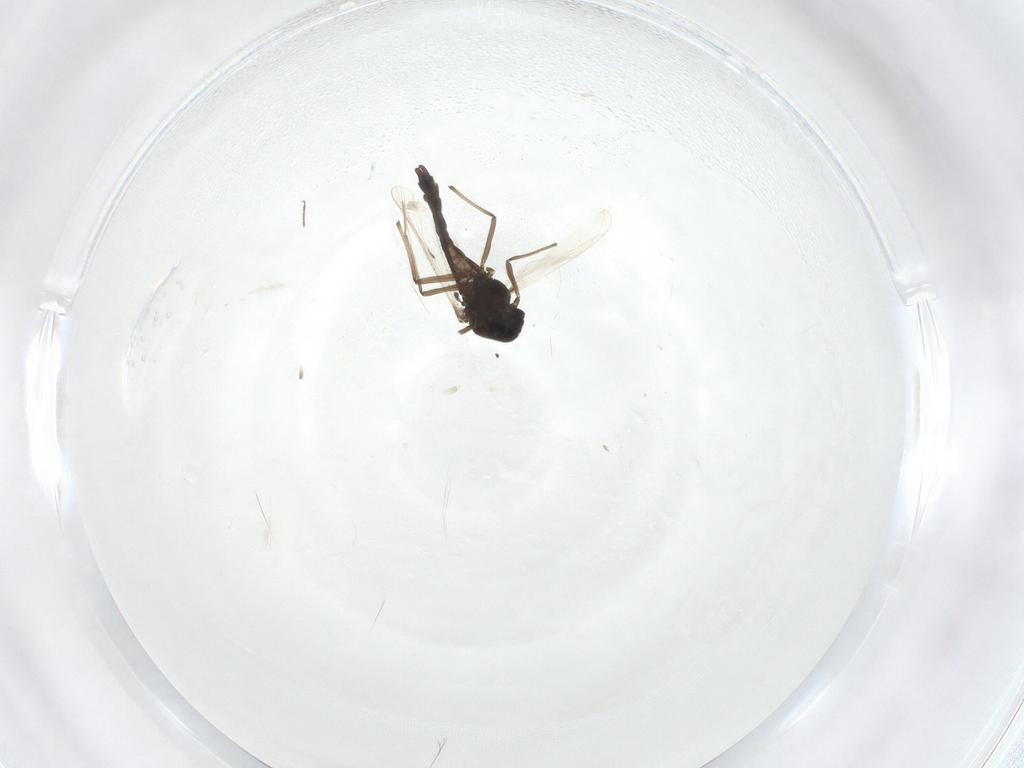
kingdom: Animalia
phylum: Arthropoda
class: Insecta
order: Diptera
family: Chironomidae
